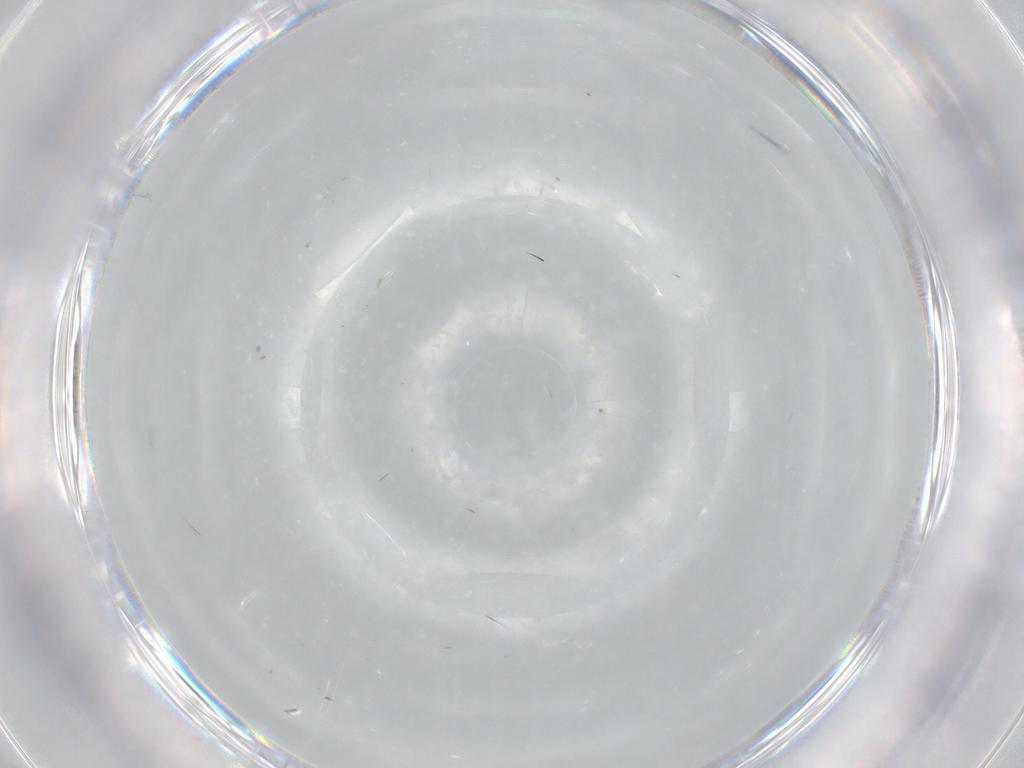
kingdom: Animalia
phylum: Arthropoda
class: Insecta
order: Diptera
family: Phoridae
